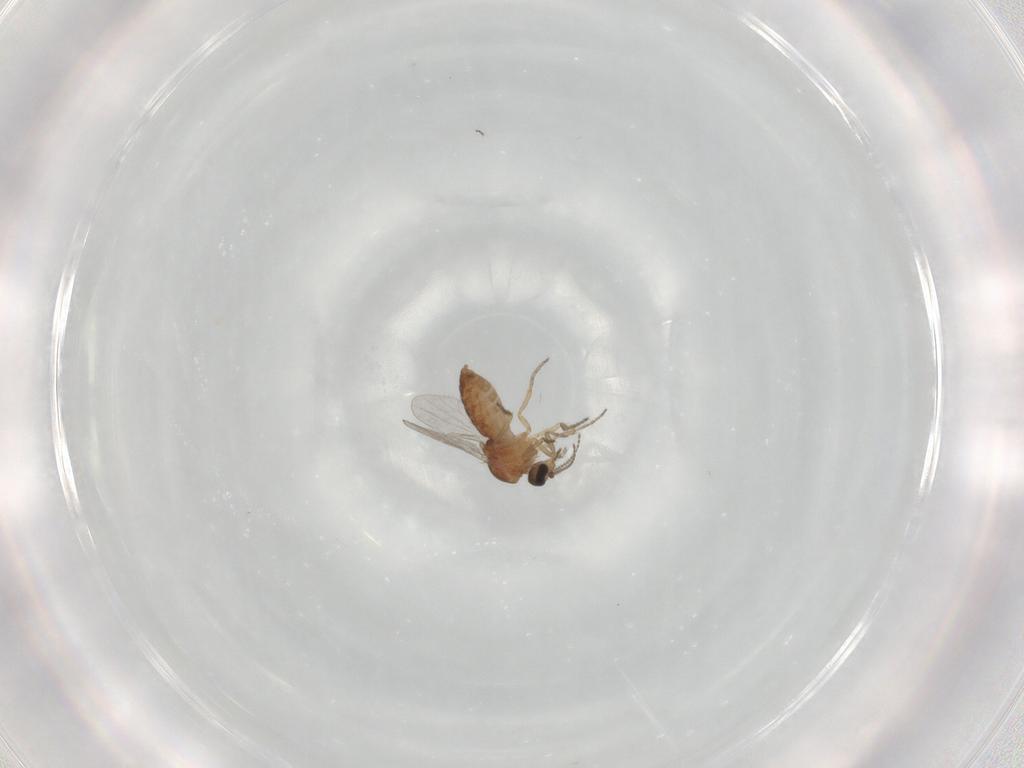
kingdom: Animalia
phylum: Arthropoda
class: Insecta
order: Diptera
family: Ceratopogonidae
